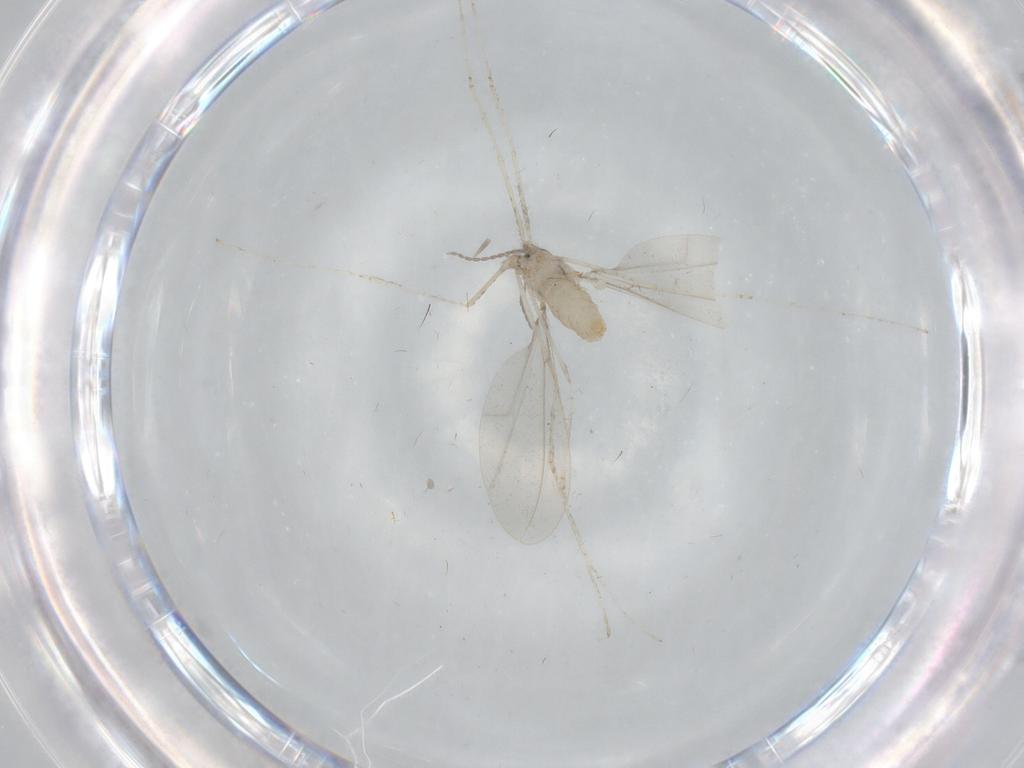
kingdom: Animalia
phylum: Arthropoda
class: Insecta
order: Diptera
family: Cecidomyiidae
